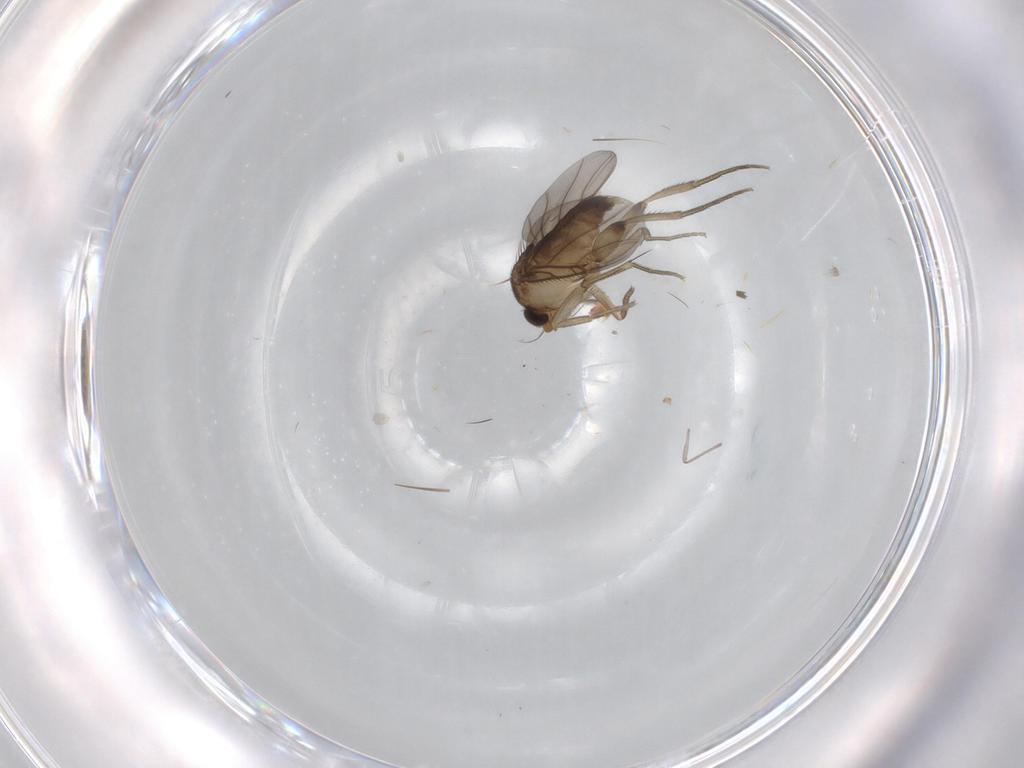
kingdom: Animalia
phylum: Arthropoda
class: Insecta
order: Diptera
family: Phoridae
